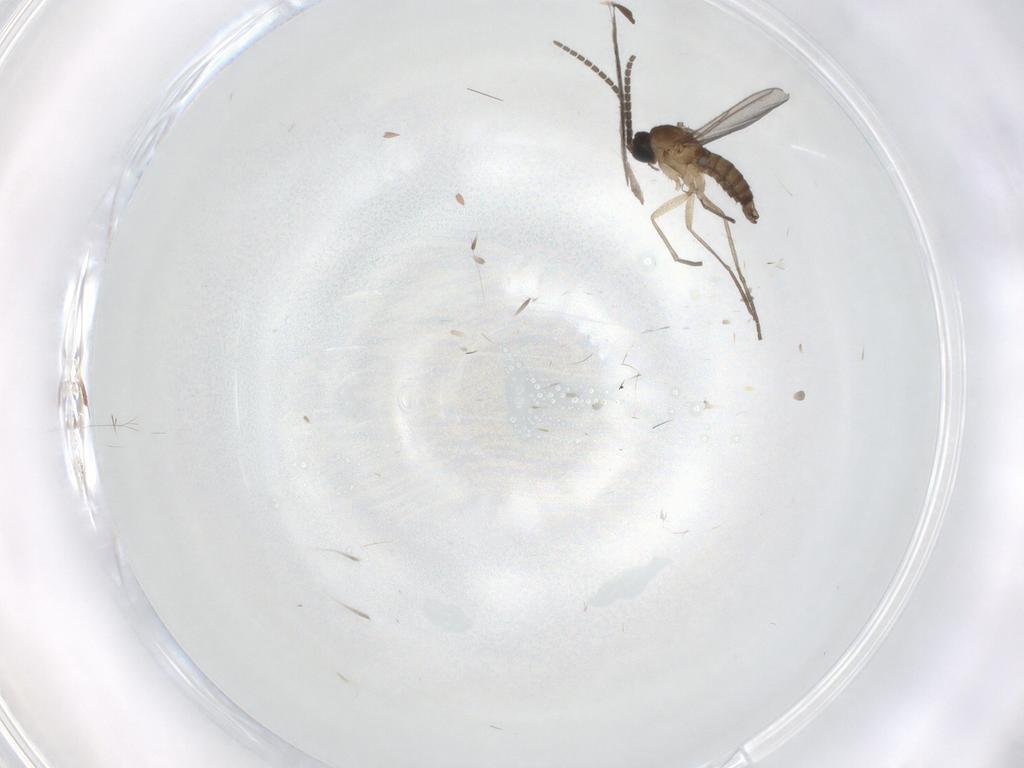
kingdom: Animalia
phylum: Arthropoda
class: Insecta
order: Diptera
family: Sciaridae
